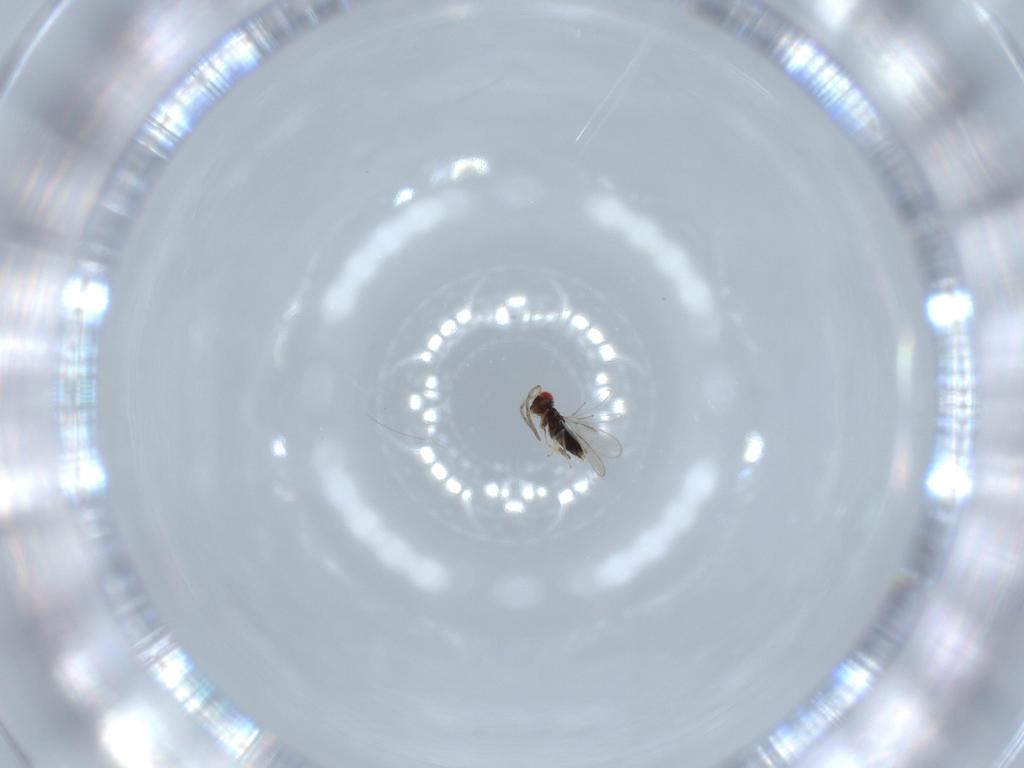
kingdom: Animalia
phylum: Arthropoda
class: Insecta
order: Hymenoptera
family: Azotidae
